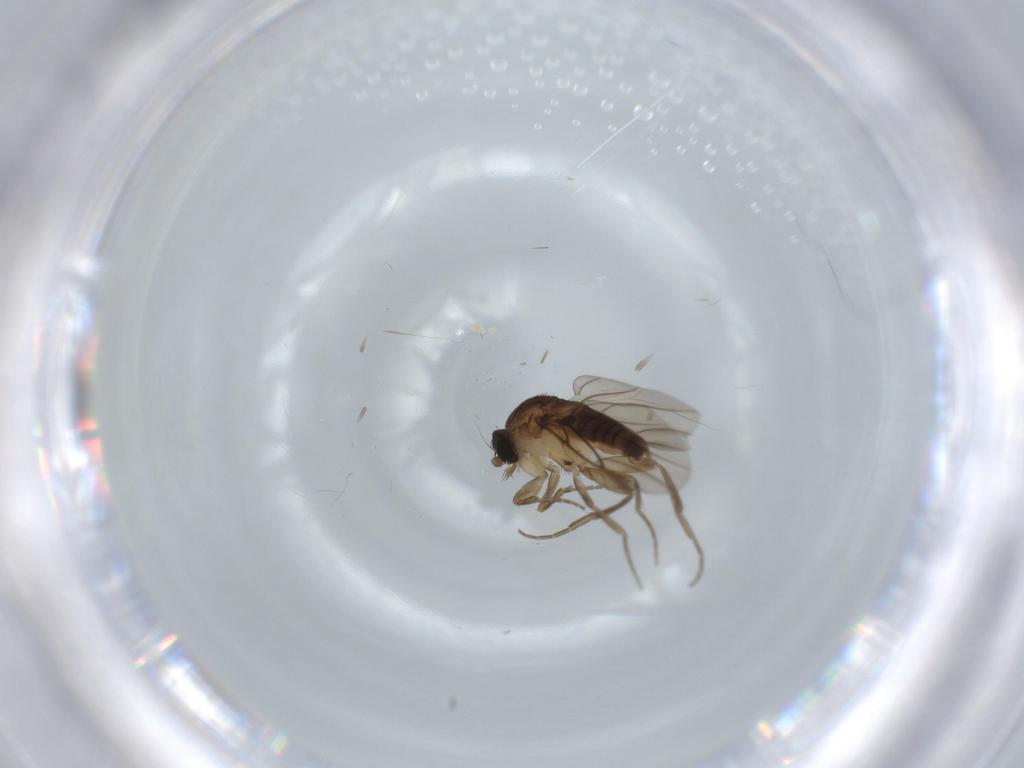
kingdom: Animalia
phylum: Arthropoda
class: Insecta
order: Diptera
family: Phoridae
